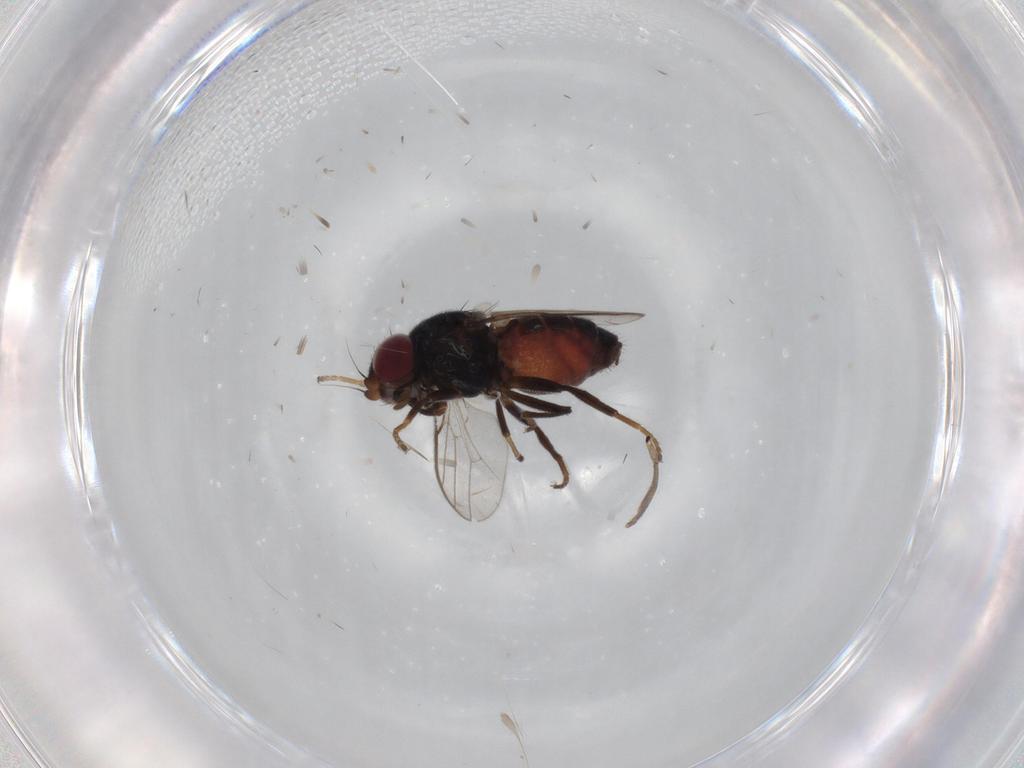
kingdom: Animalia
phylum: Arthropoda
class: Insecta
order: Diptera
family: Chloropidae
